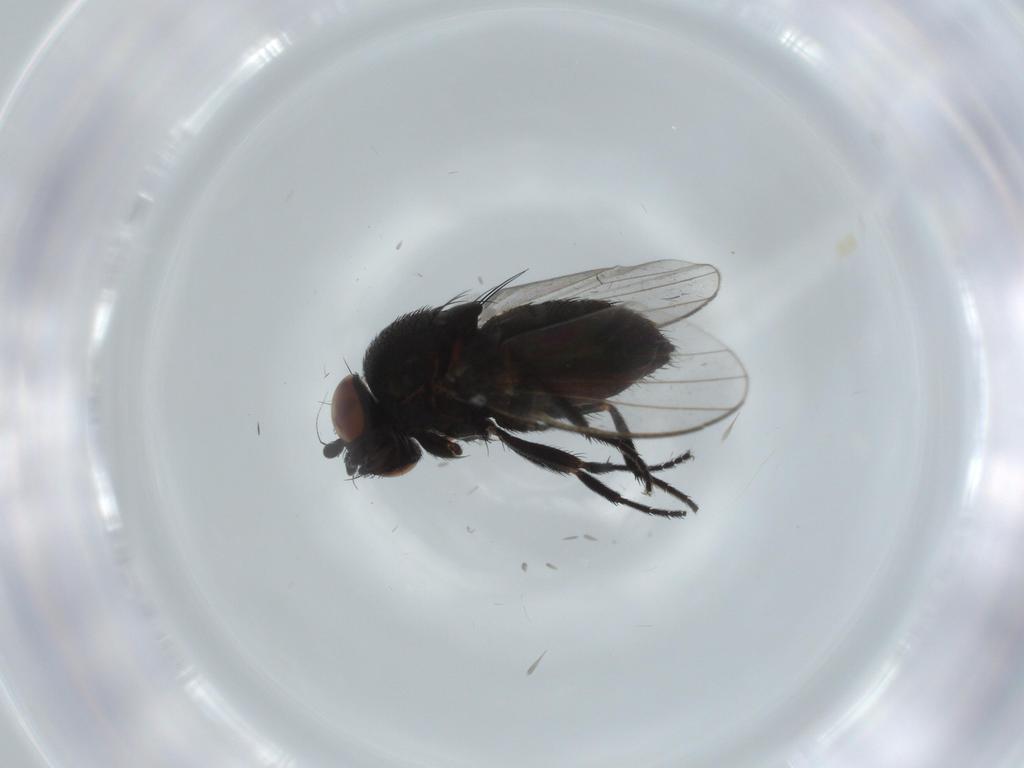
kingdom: Animalia
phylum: Arthropoda
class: Insecta
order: Diptera
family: Milichiidae
